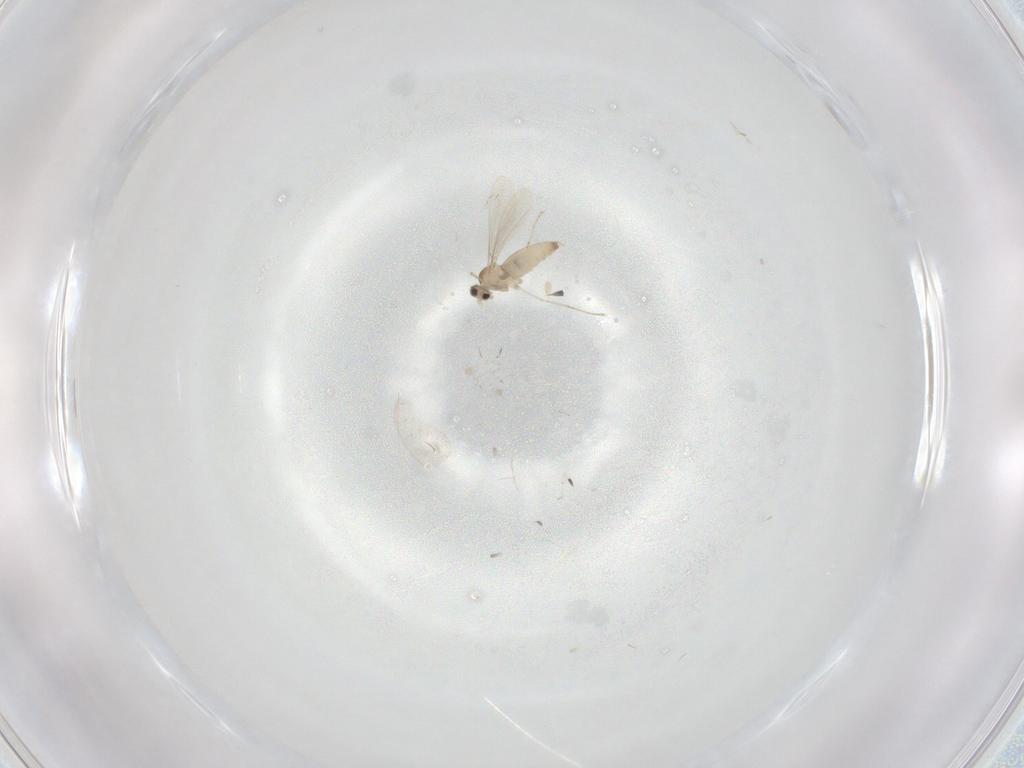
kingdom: Animalia
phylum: Arthropoda
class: Insecta
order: Diptera
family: Cecidomyiidae
